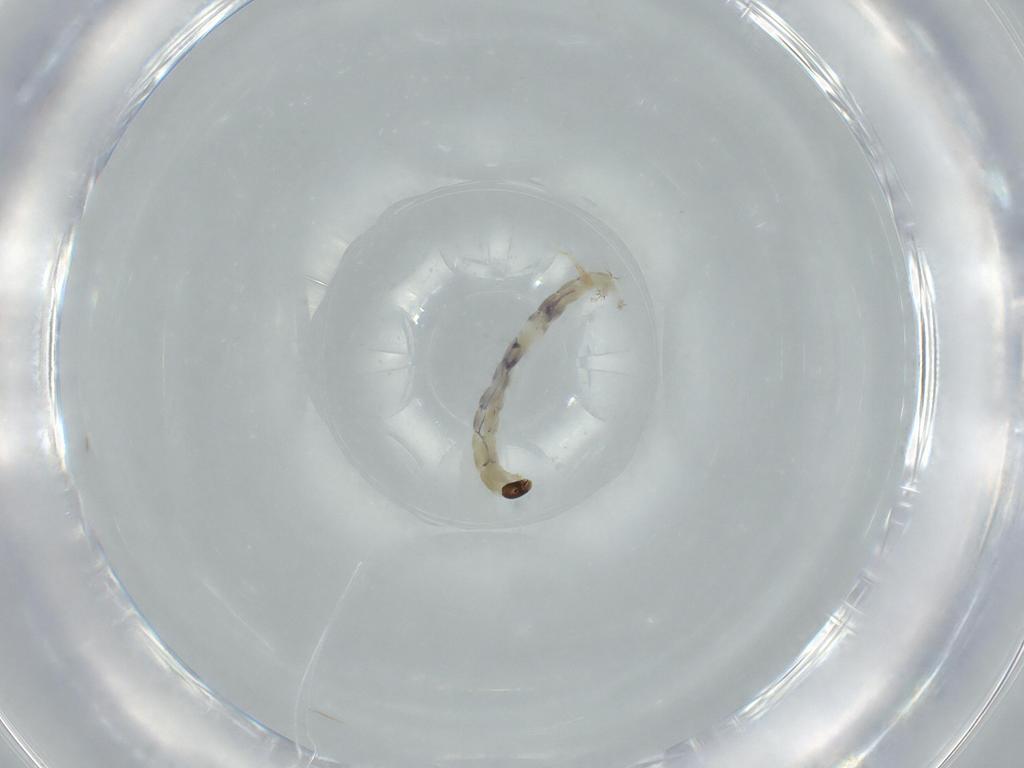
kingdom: Animalia
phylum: Arthropoda
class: Insecta
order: Diptera
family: Chironomidae
